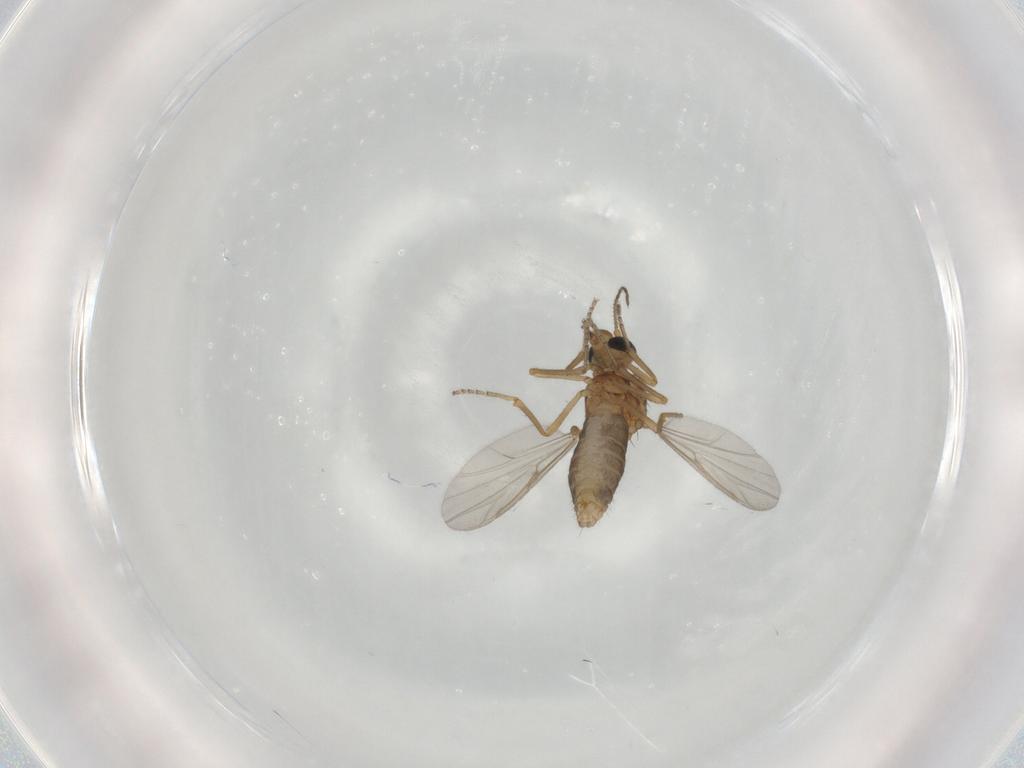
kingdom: Animalia
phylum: Arthropoda
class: Insecta
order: Diptera
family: Ceratopogonidae
